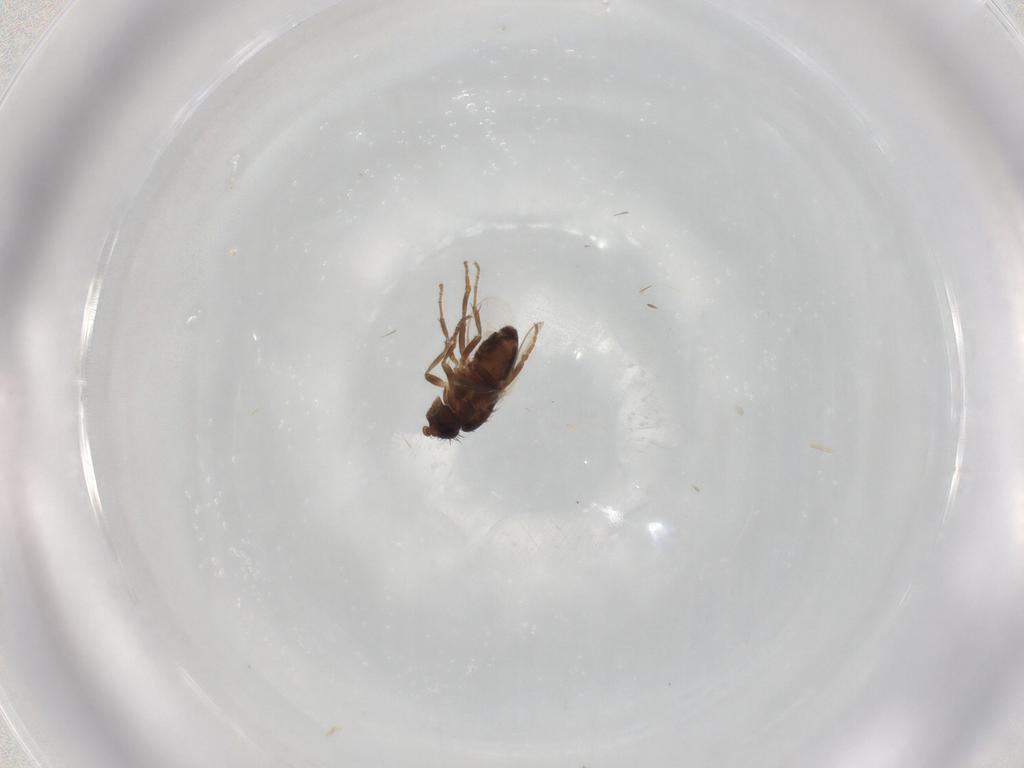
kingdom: Animalia
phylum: Arthropoda
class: Insecta
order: Diptera
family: Sphaeroceridae
